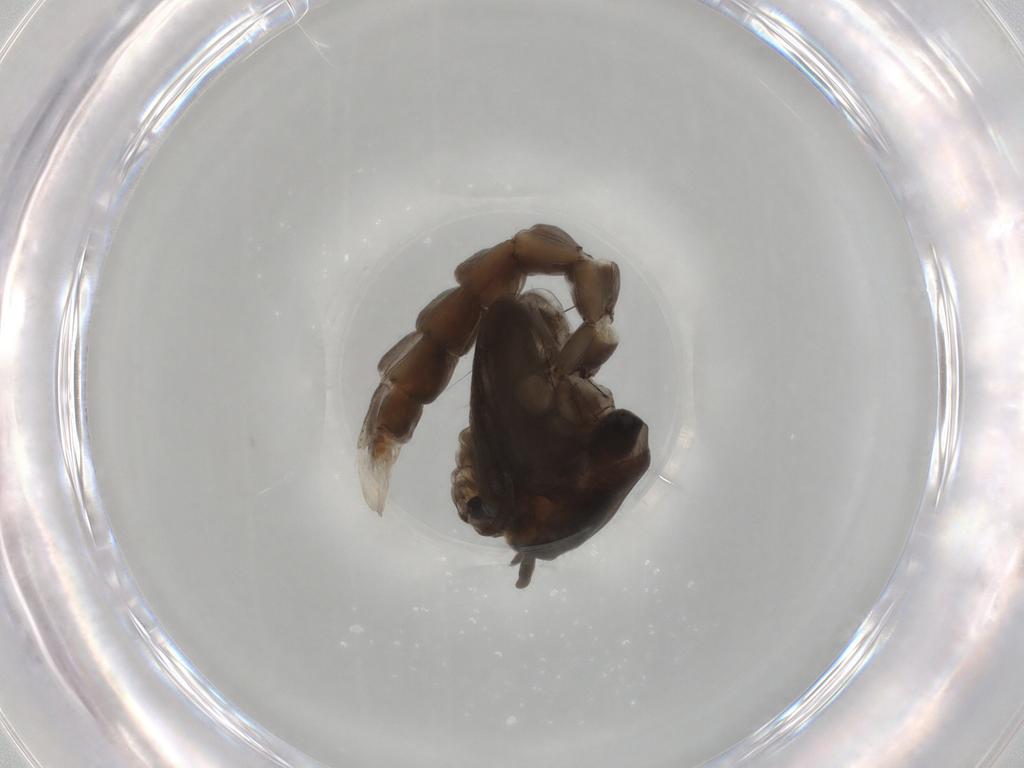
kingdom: Animalia
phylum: Arthropoda
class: Insecta
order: Diptera
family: Chironomidae
